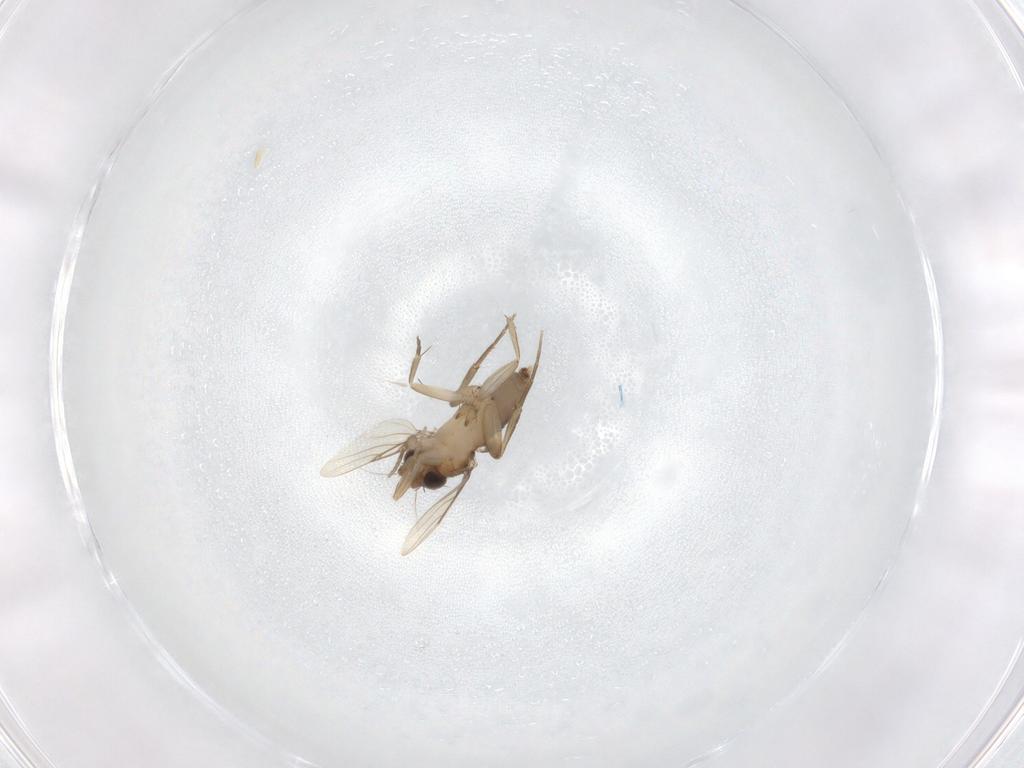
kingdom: Animalia
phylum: Arthropoda
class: Insecta
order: Diptera
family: Phoridae
